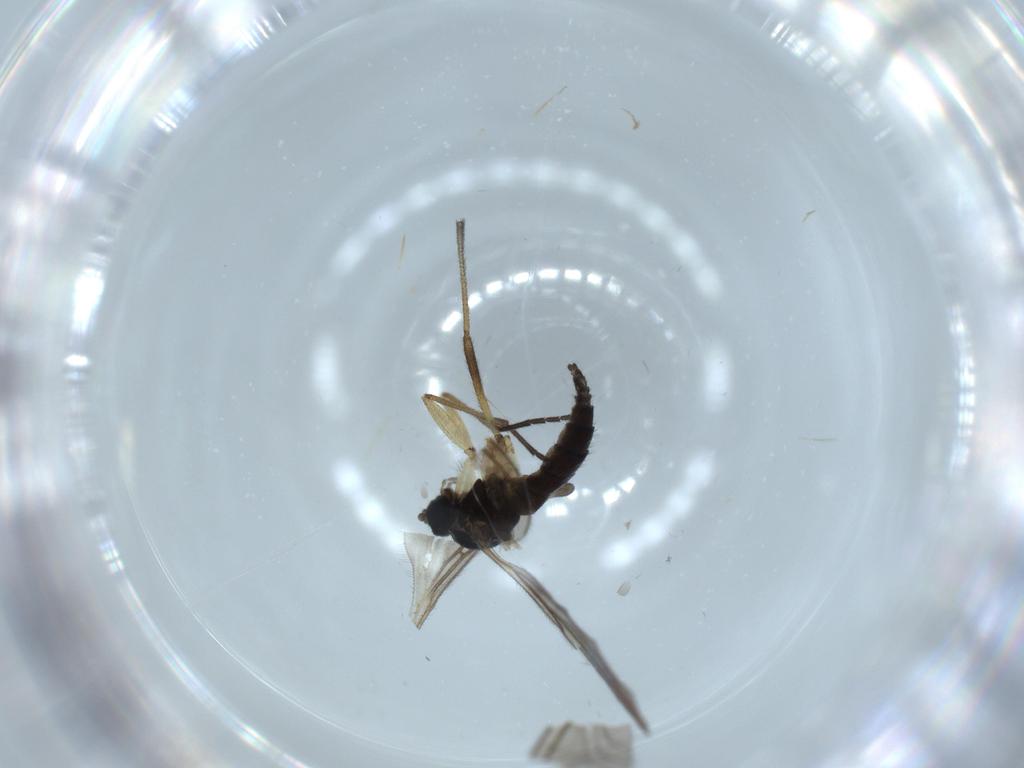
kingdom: Animalia
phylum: Arthropoda
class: Insecta
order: Diptera
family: Sciaridae
